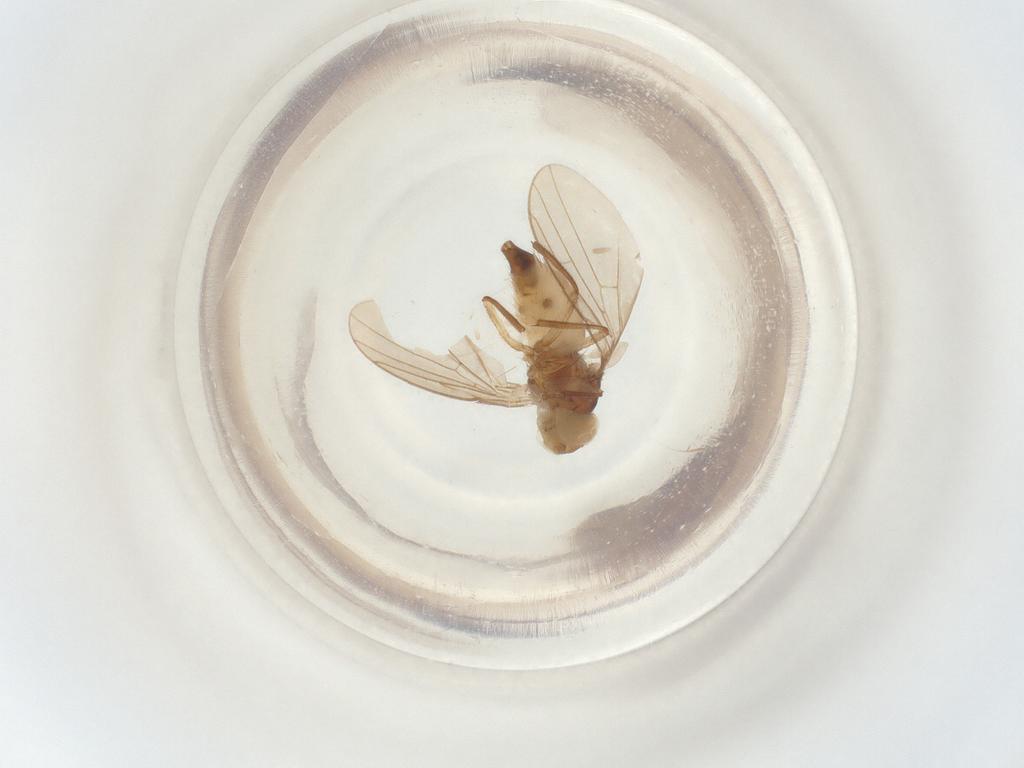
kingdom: Animalia
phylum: Arthropoda
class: Insecta
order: Diptera
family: Agromyzidae
